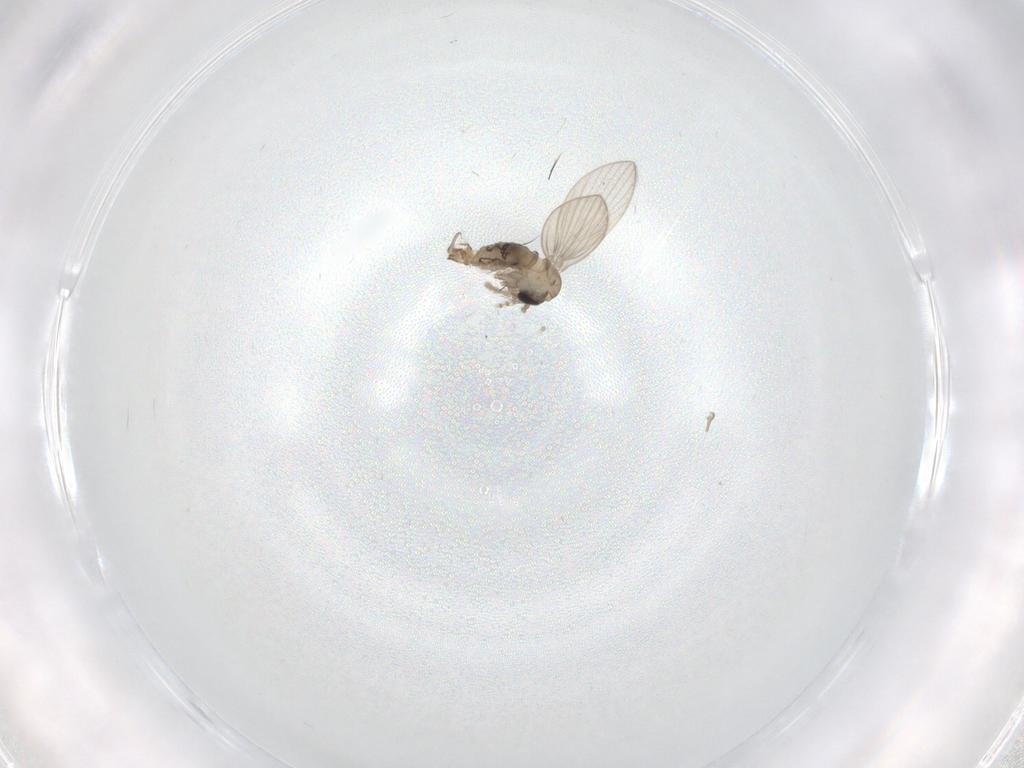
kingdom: Animalia
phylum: Arthropoda
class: Insecta
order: Diptera
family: Psychodidae
